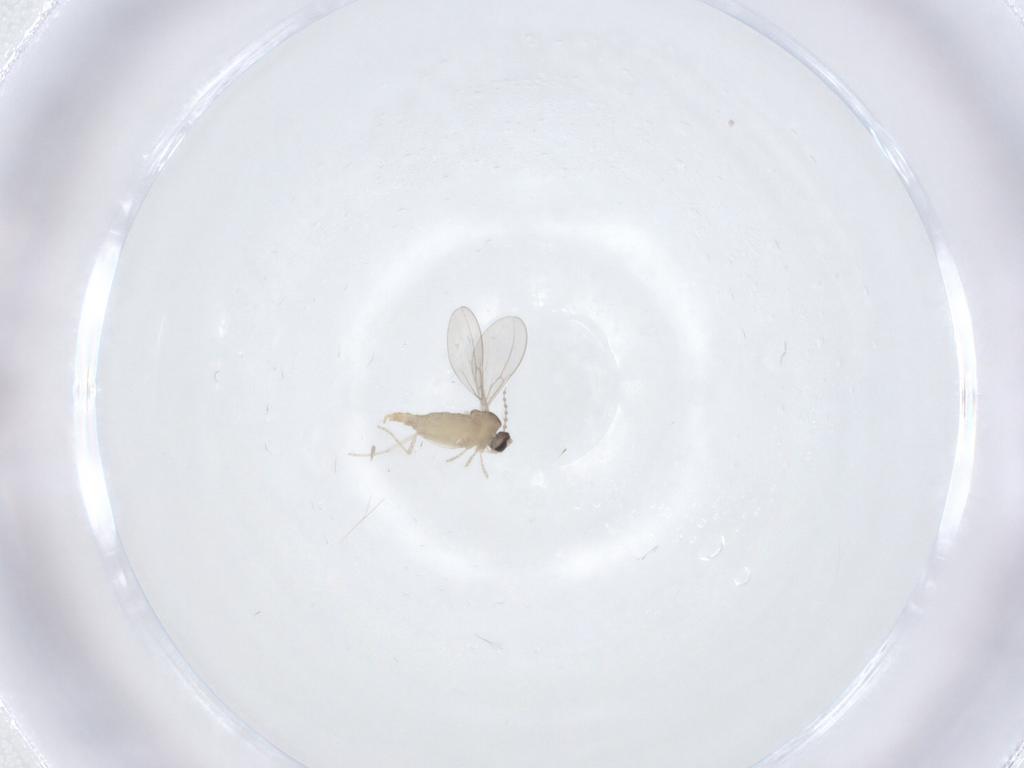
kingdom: Animalia
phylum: Arthropoda
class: Insecta
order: Diptera
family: Cecidomyiidae
